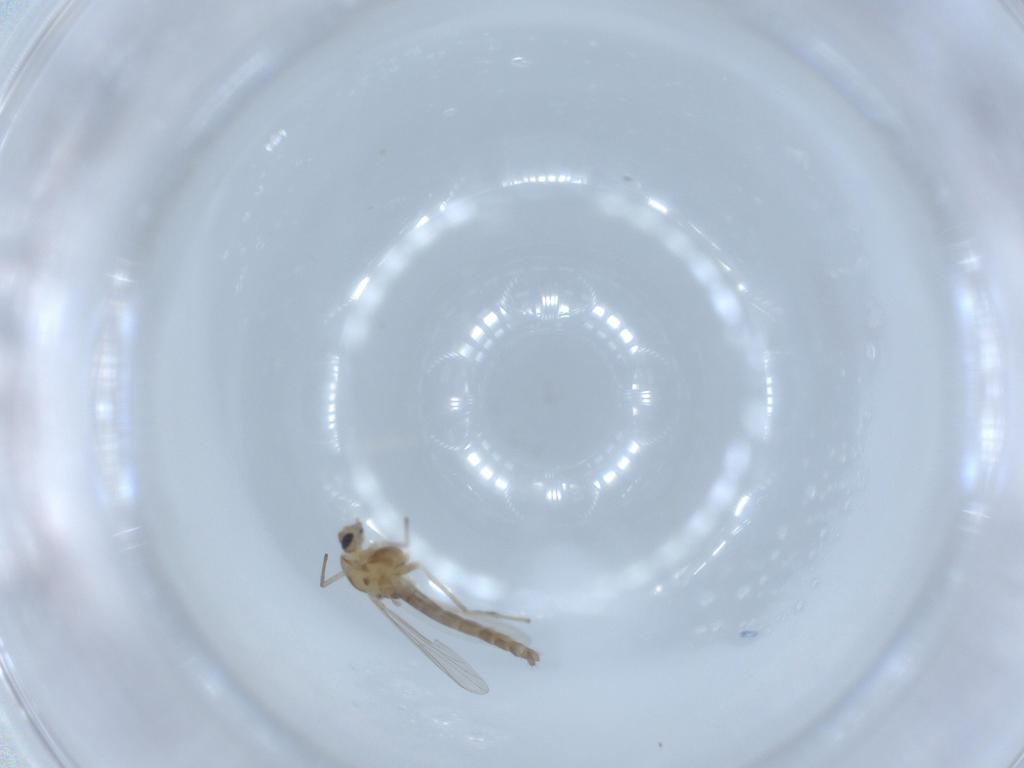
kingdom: Animalia
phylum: Arthropoda
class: Insecta
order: Diptera
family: Chironomidae
